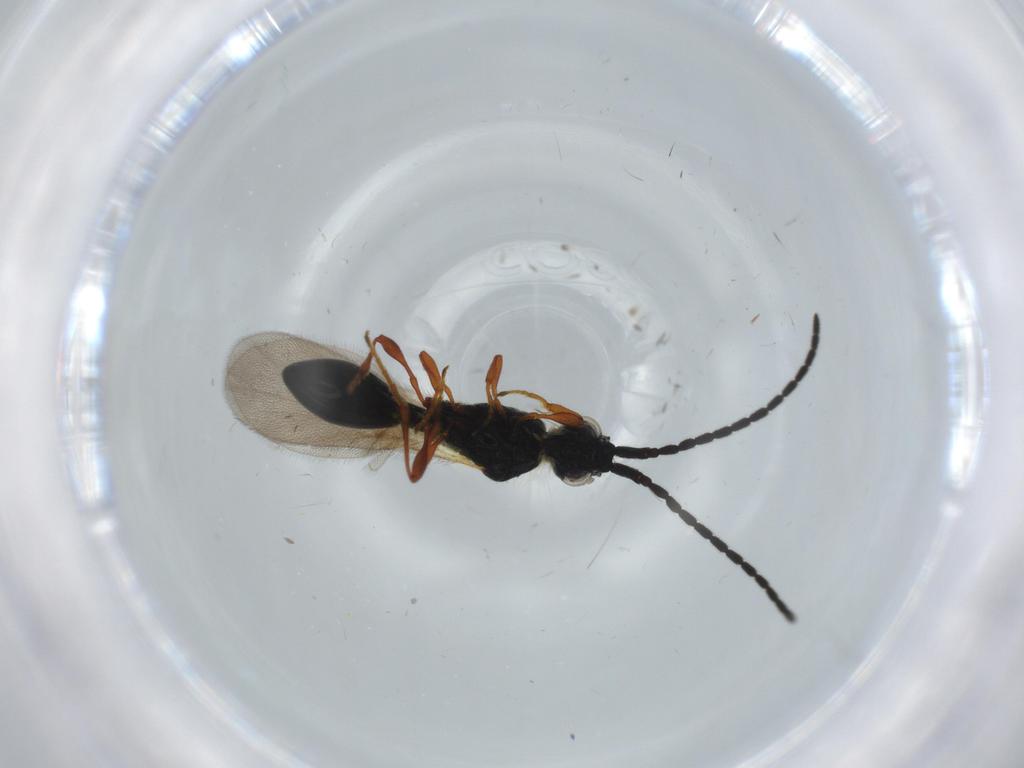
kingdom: Animalia
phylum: Arthropoda
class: Insecta
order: Hymenoptera
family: Diapriidae
